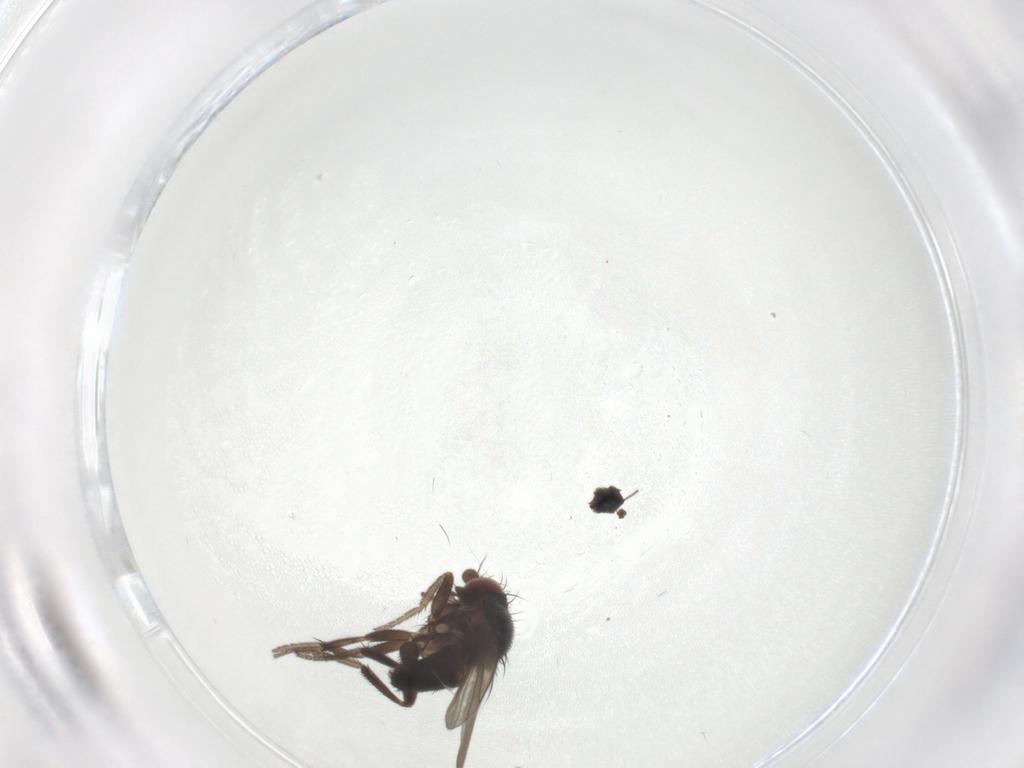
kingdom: Animalia
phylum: Arthropoda
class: Insecta
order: Diptera
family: Milichiidae
